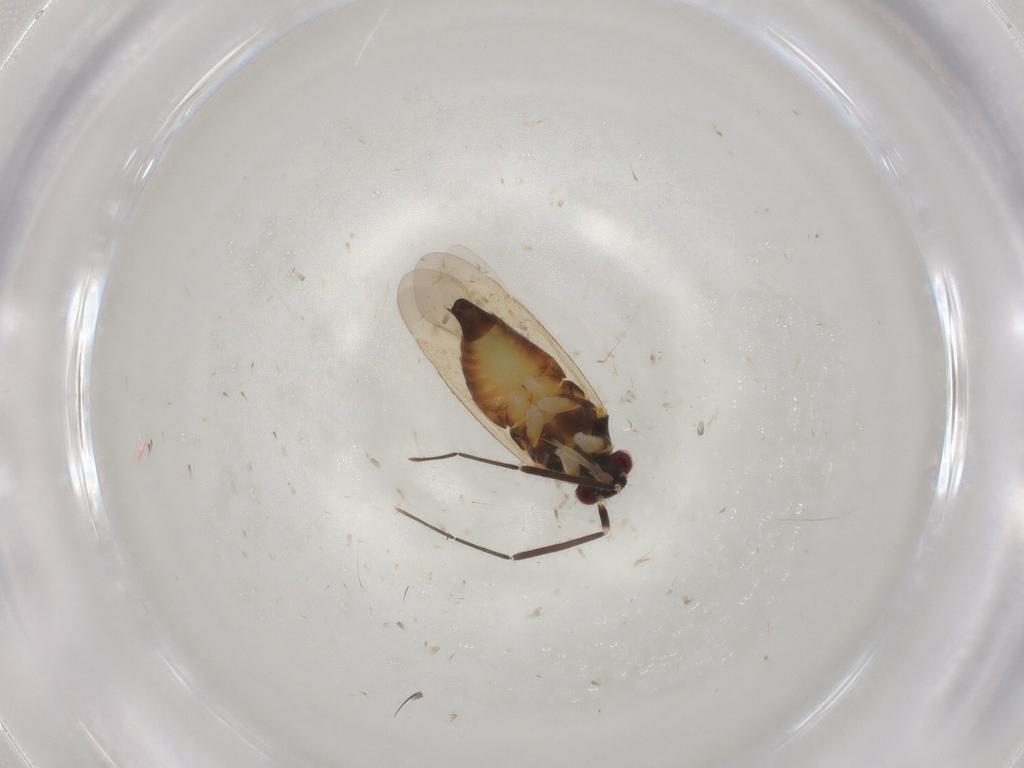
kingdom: Animalia
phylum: Arthropoda
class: Insecta
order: Hemiptera
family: Miridae
